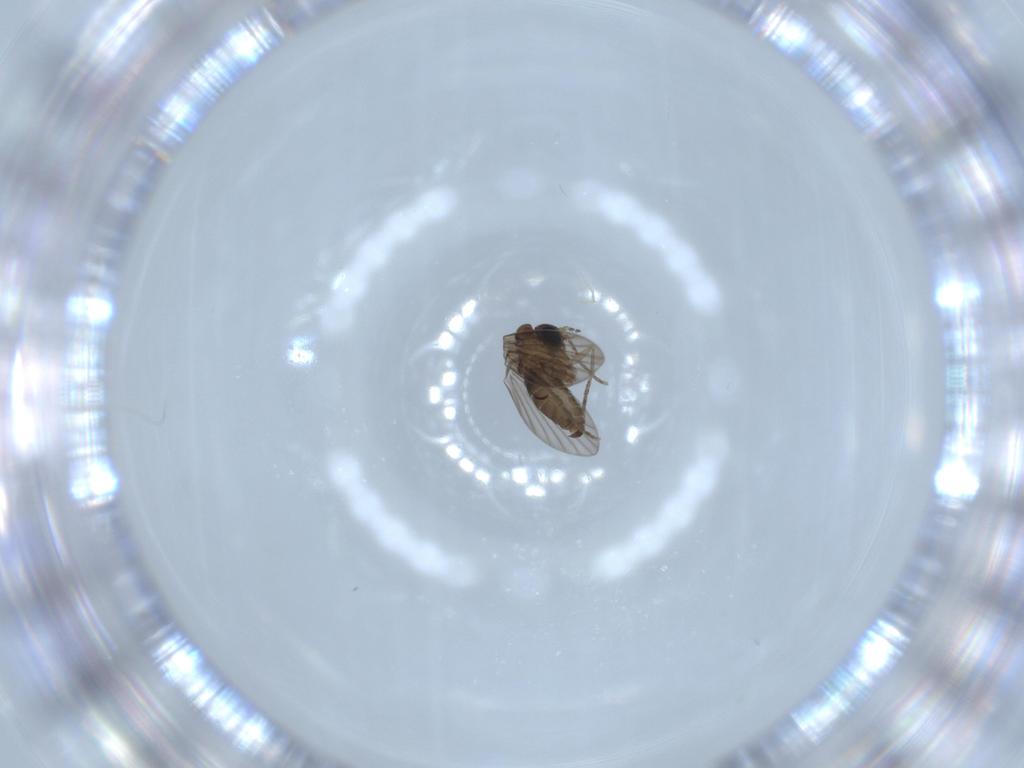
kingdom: Animalia
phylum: Arthropoda
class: Insecta
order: Diptera
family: Psychodidae
